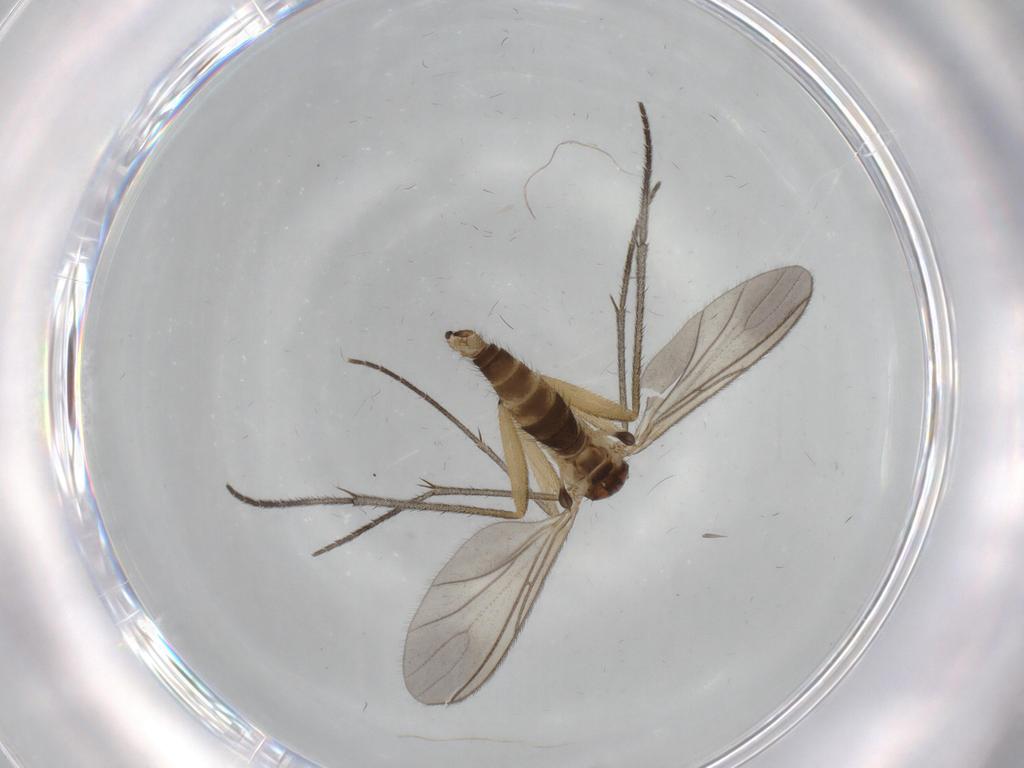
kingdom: Animalia
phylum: Arthropoda
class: Insecta
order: Diptera
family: Sciaridae
